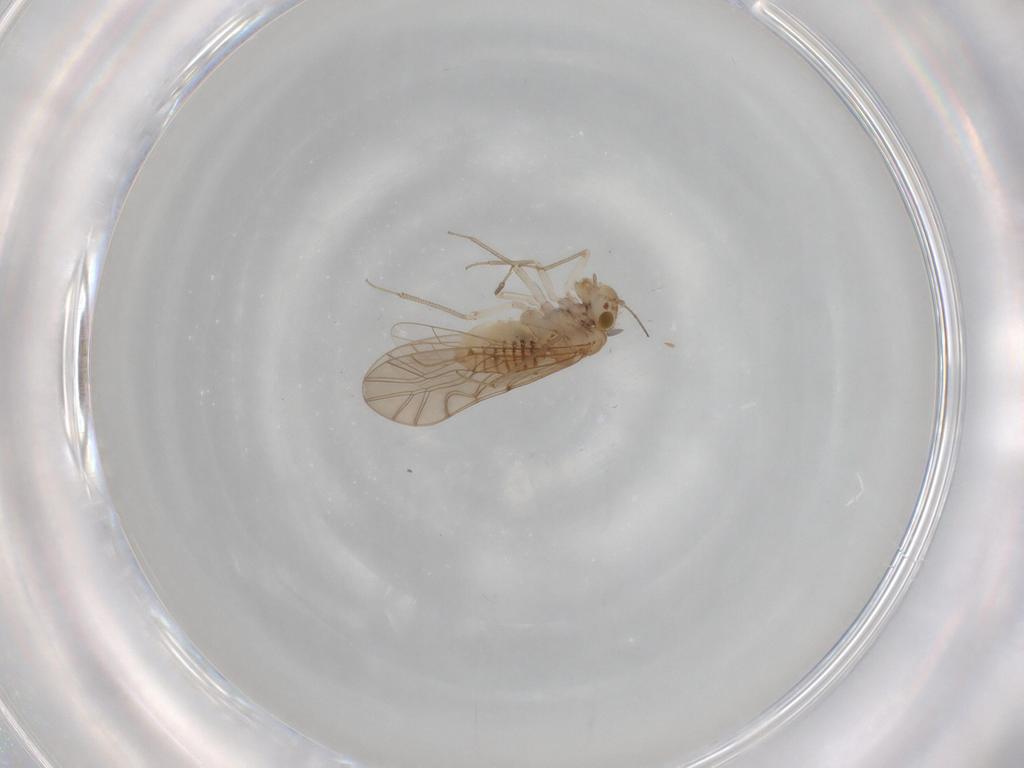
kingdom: Animalia
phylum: Arthropoda
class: Insecta
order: Psocodea
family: Lachesillidae
